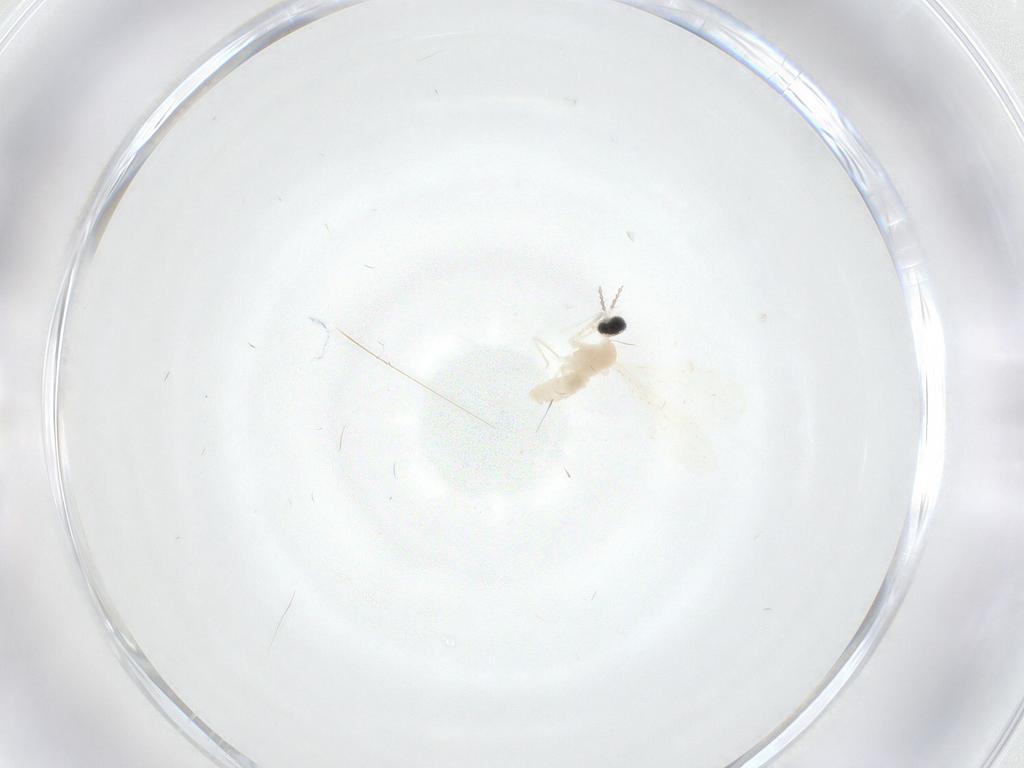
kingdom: Animalia
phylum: Arthropoda
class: Insecta
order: Diptera
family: Cecidomyiidae
